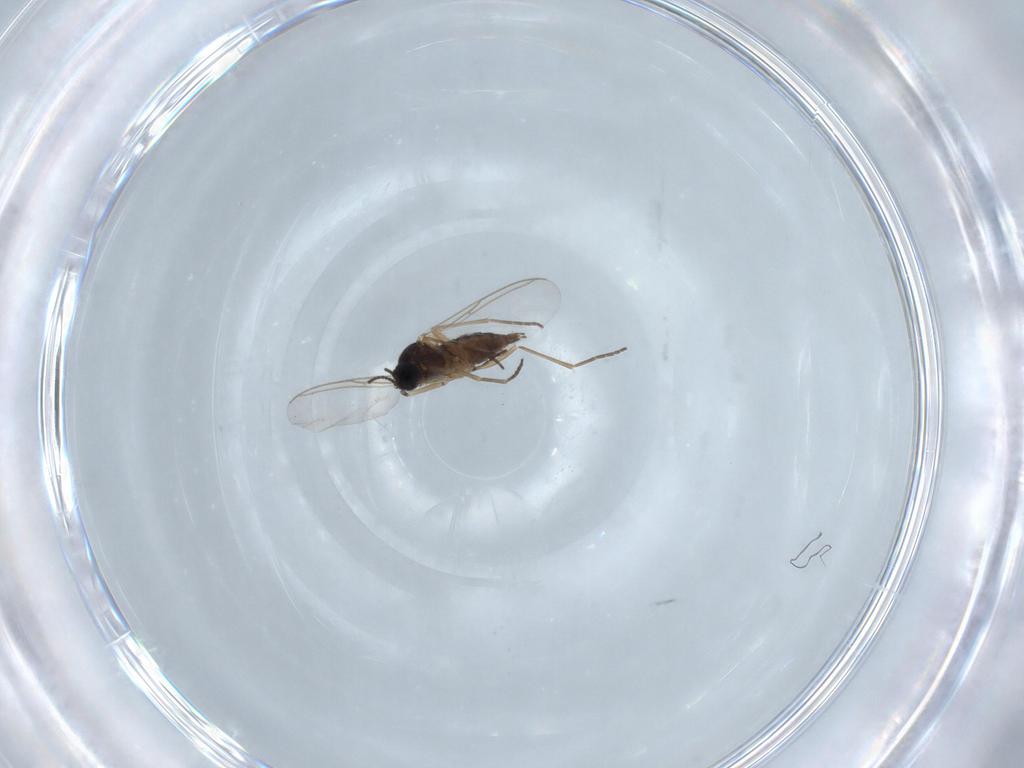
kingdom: Animalia
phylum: Arthropoda
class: Insecta
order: Diptera
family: Sciaridae
